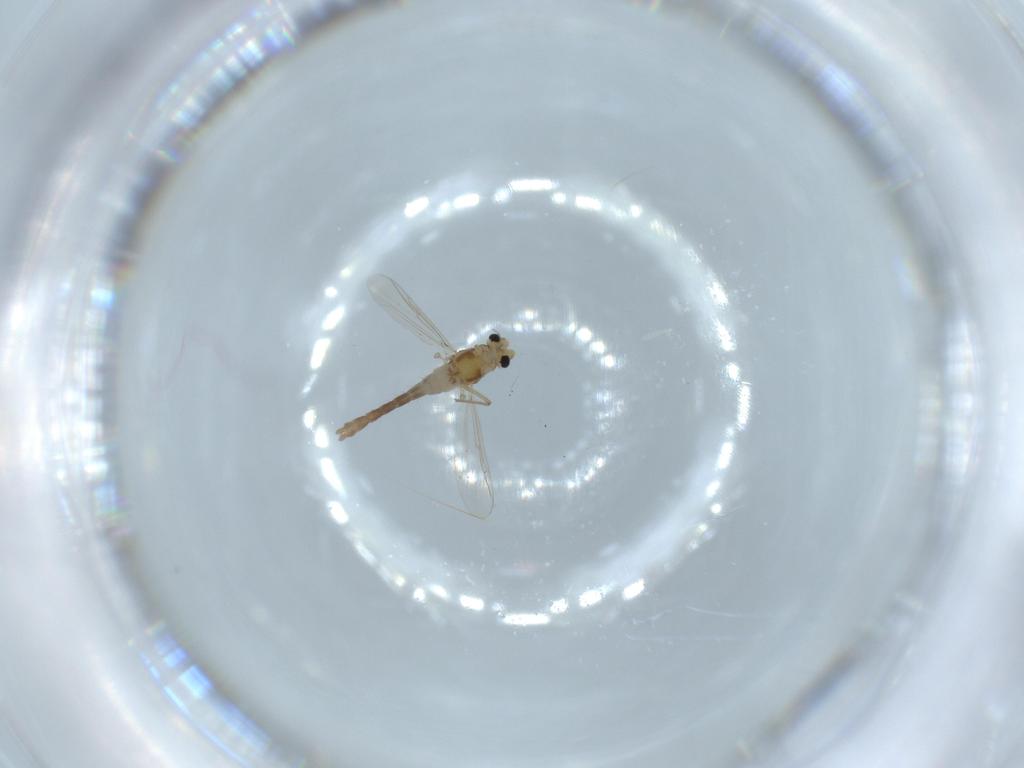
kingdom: Animalia
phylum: Arthropoda
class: Insecta
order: Diptera
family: Chironomidae
